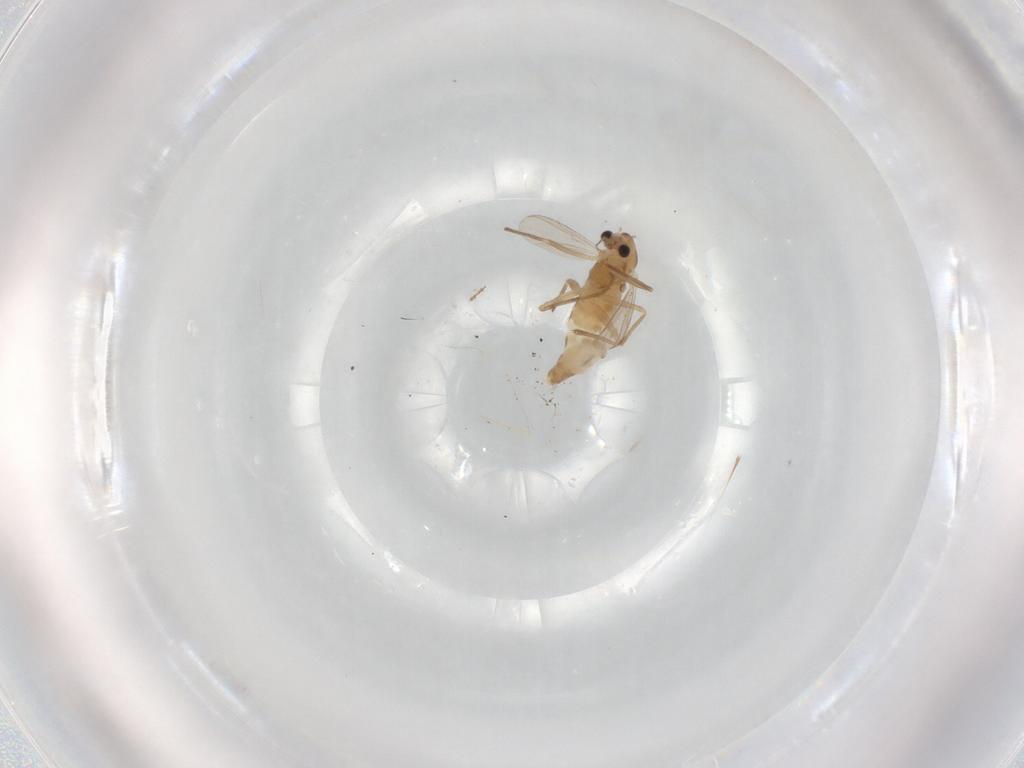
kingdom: Animalia
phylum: Arthropoda
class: Insecta
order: Diptera
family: Chironomidae
